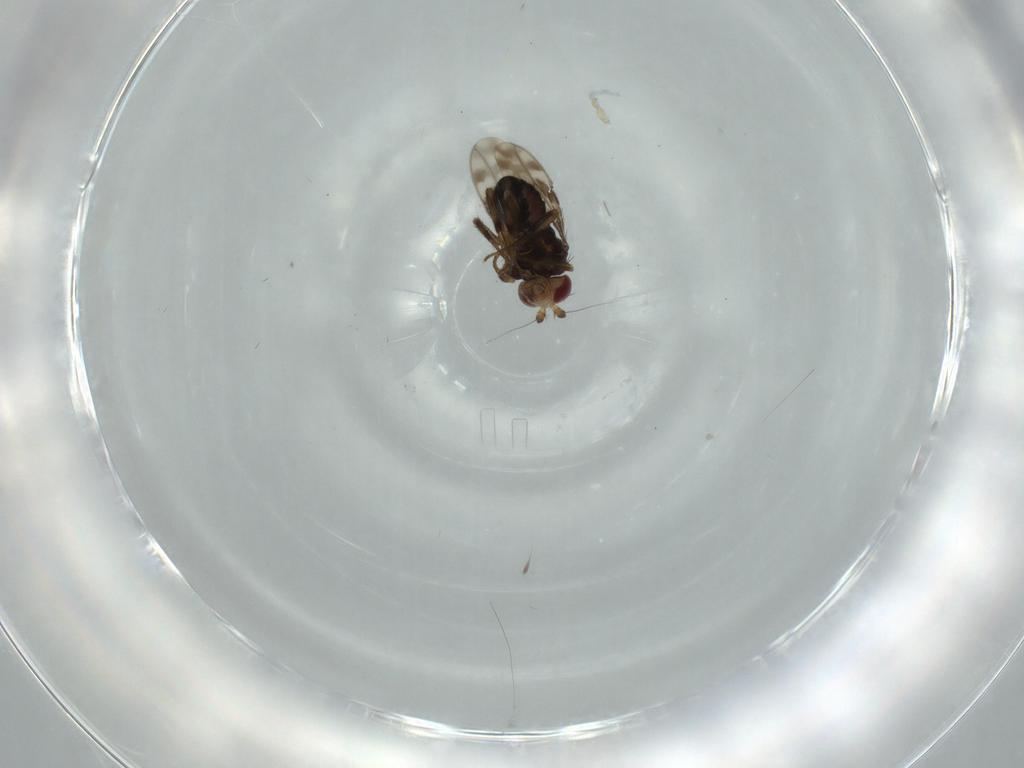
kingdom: Animalia
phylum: Arthropoda
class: Insecta
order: Diptera
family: Sphaeroceridae
